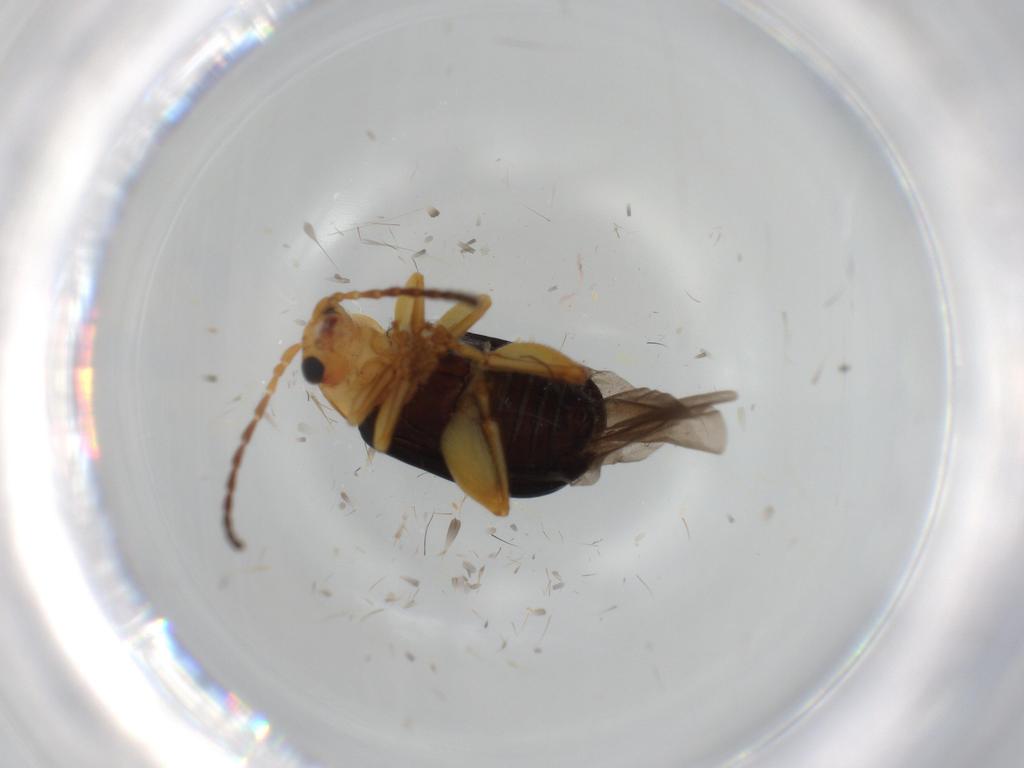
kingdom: Animalia
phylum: Arthropoda
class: Insecta
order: Coleoptera
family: Chrysomelidae
